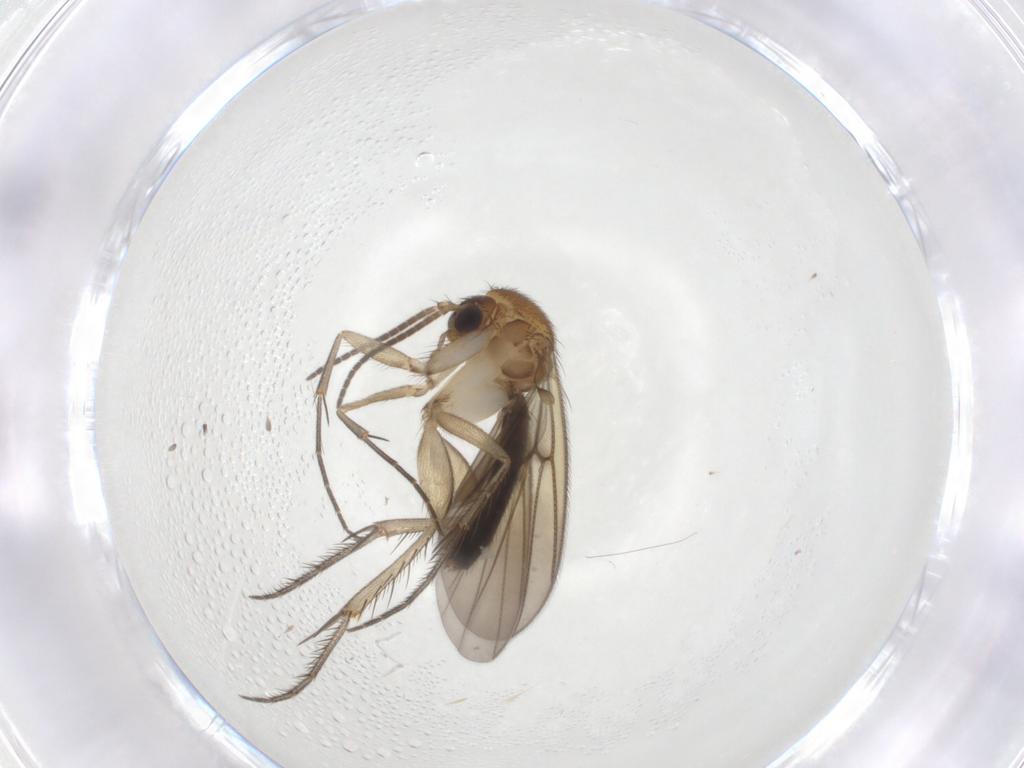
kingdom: Animalia
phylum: Arthropoda
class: Insecta
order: Diptera
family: Mycetophilidae
